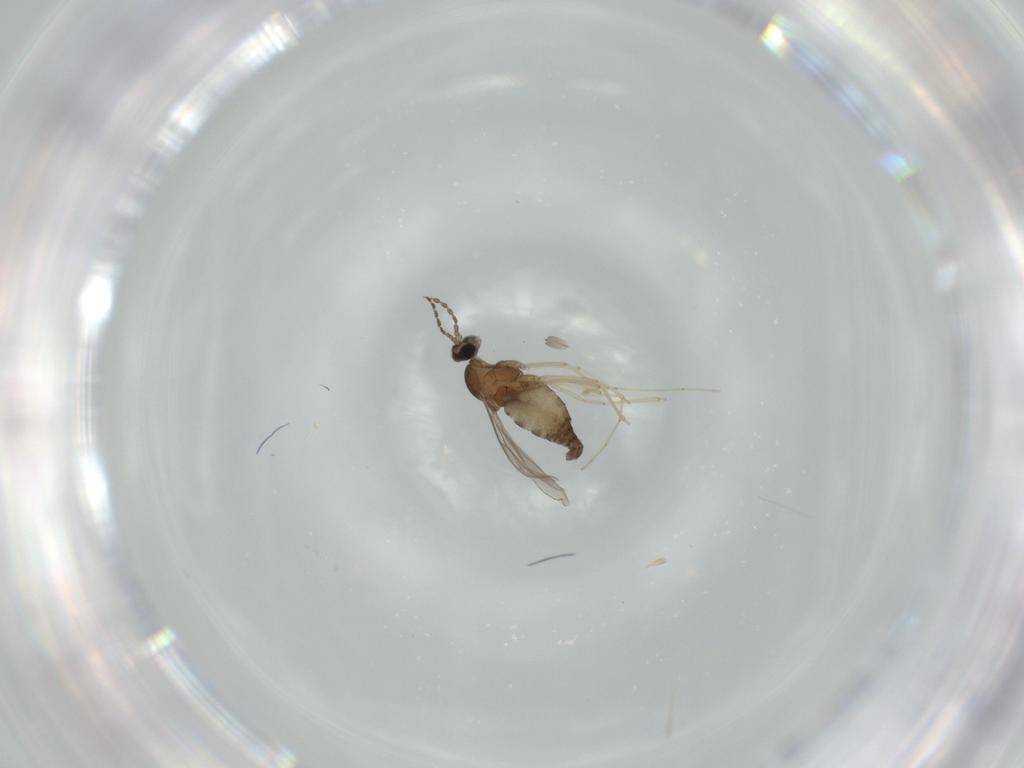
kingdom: Animalia
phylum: Arthropoda
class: Insecta
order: Diptera
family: Cecidomyiidae
